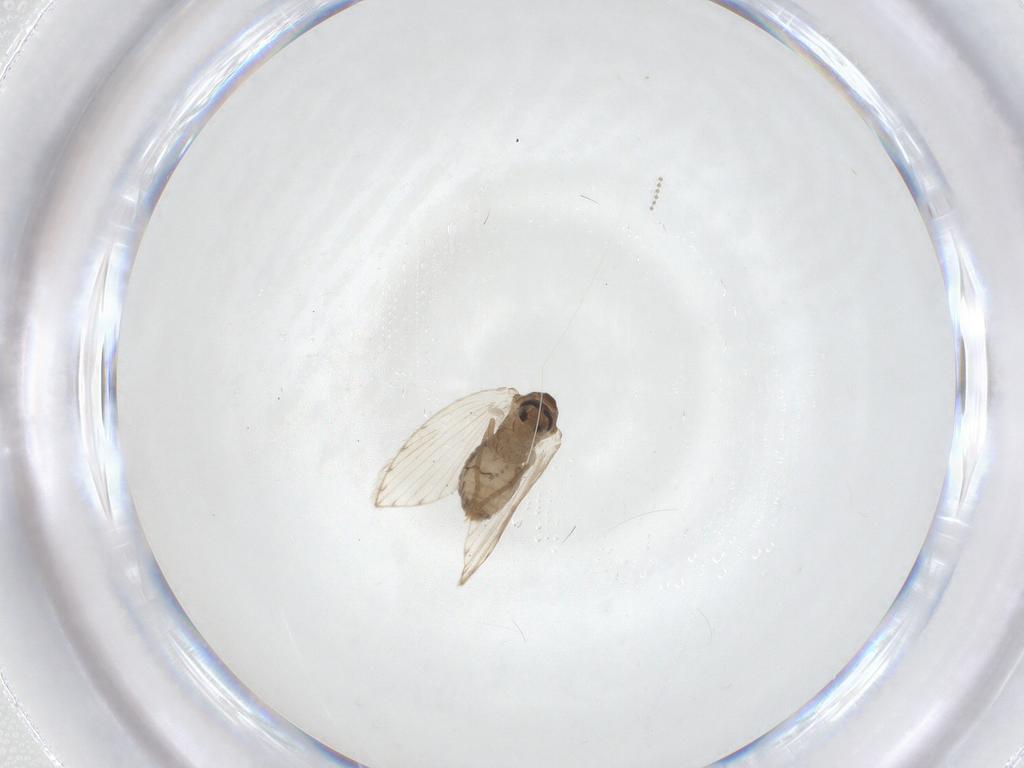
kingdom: Animalia
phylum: Arthropoda
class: Insecta
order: Diptera
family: Psychodidae
